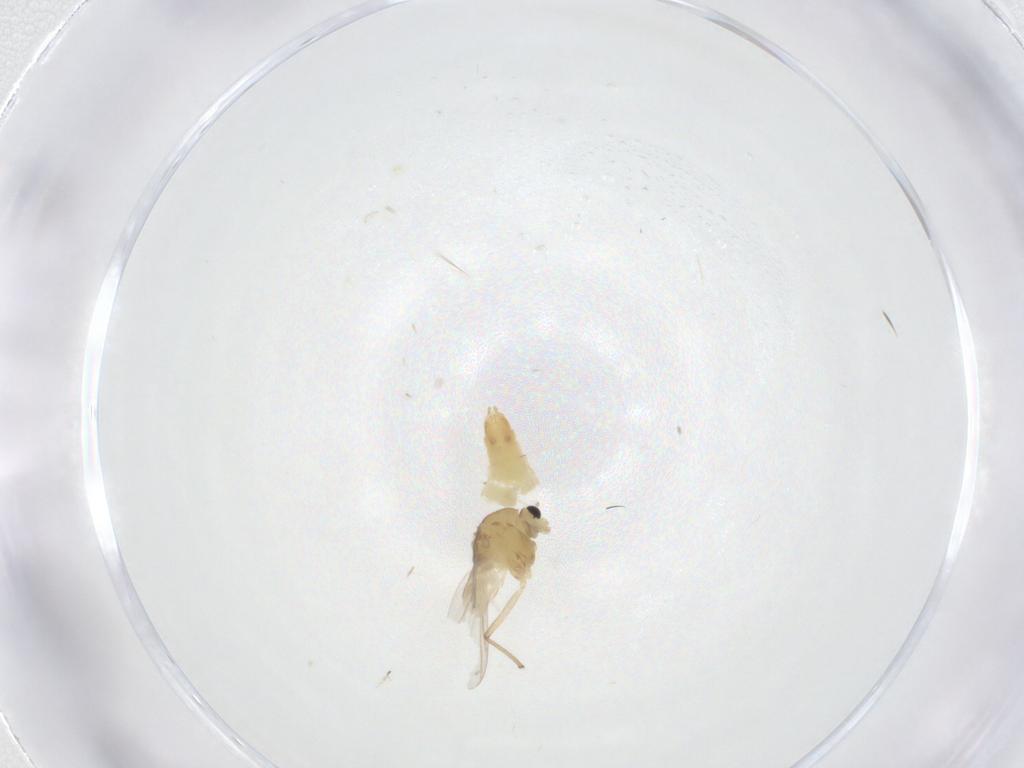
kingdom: Animalia
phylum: Arthropoda
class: Insecta
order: Diptera
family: Chironomidae
